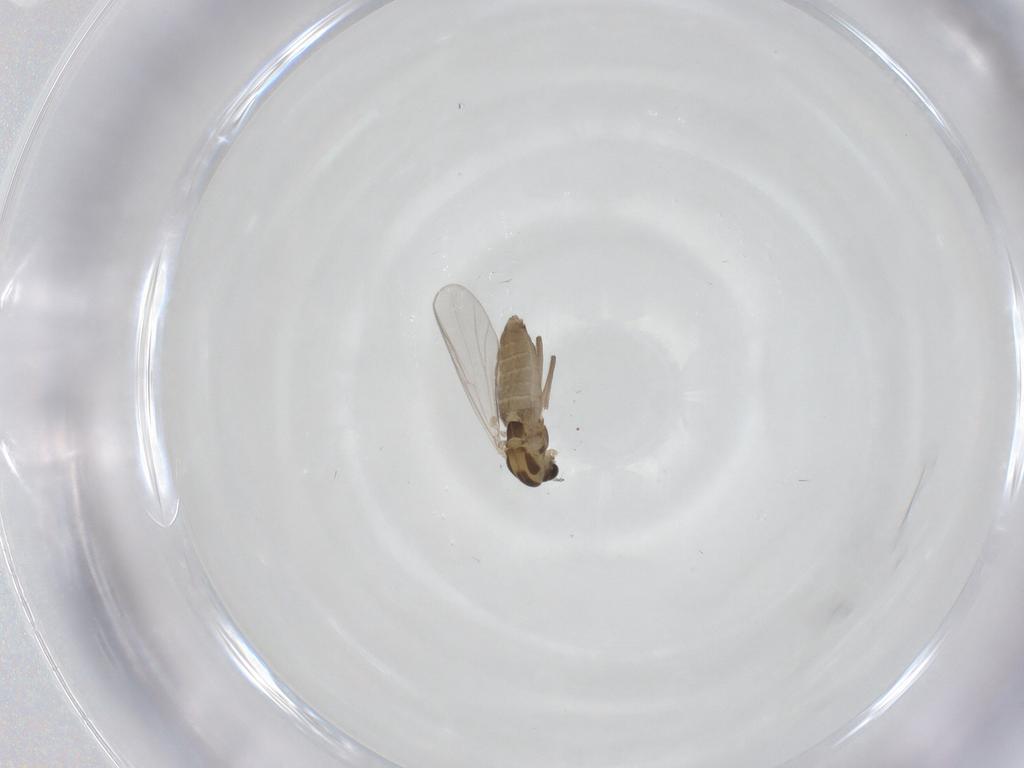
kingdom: Animalia
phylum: Arthropoda
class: Insecta
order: Diptera
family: Chironomidae
